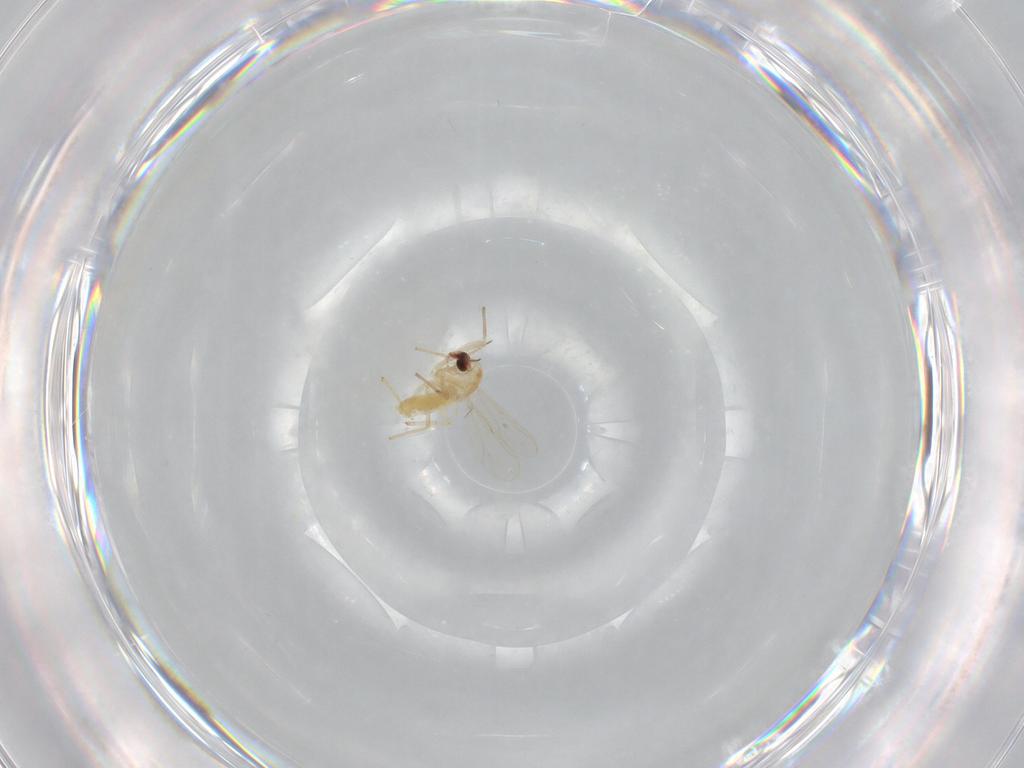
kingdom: Animalia
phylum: Arthropoda
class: Insecta
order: Diptera
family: Chironomidae
